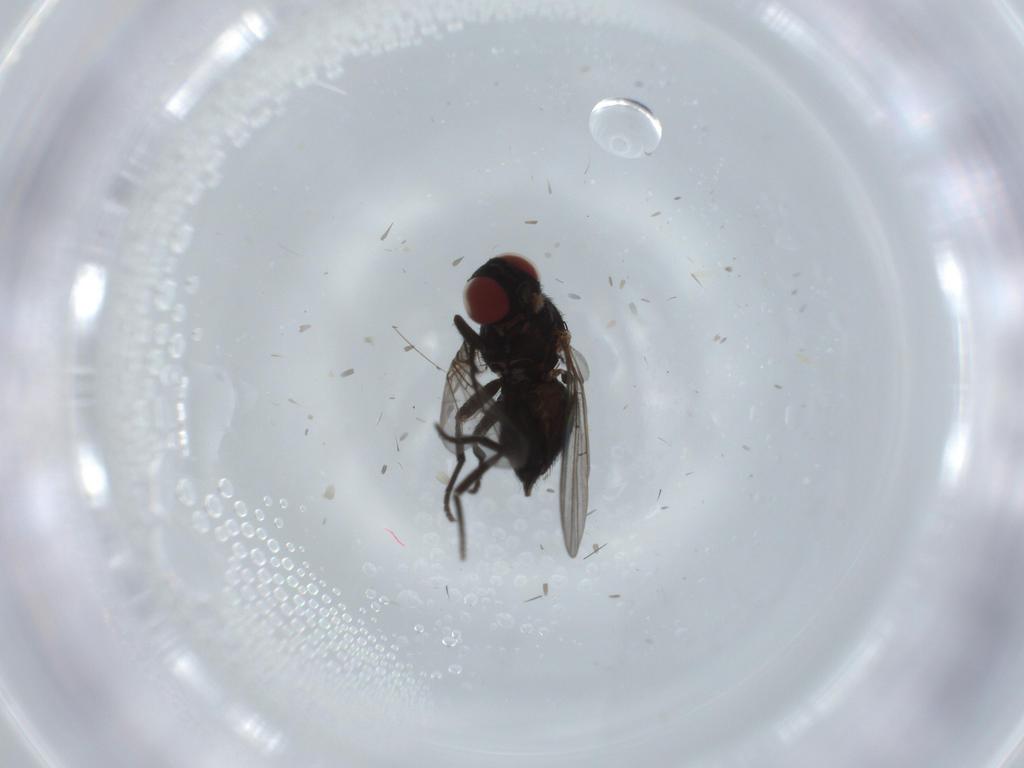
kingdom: Animalia
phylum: Arthropoda
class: Insecta
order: Diptera
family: Agromyzidae
